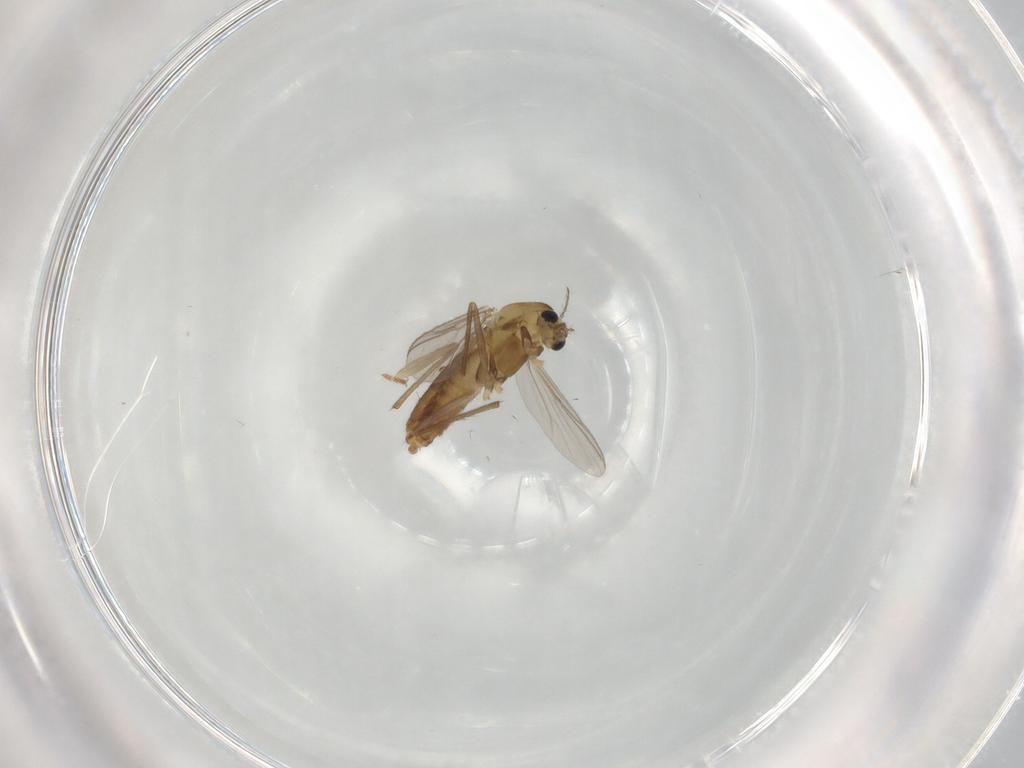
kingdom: Animalia
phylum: Arthropoda
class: Insecta
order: Diptera
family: Chironomidae
